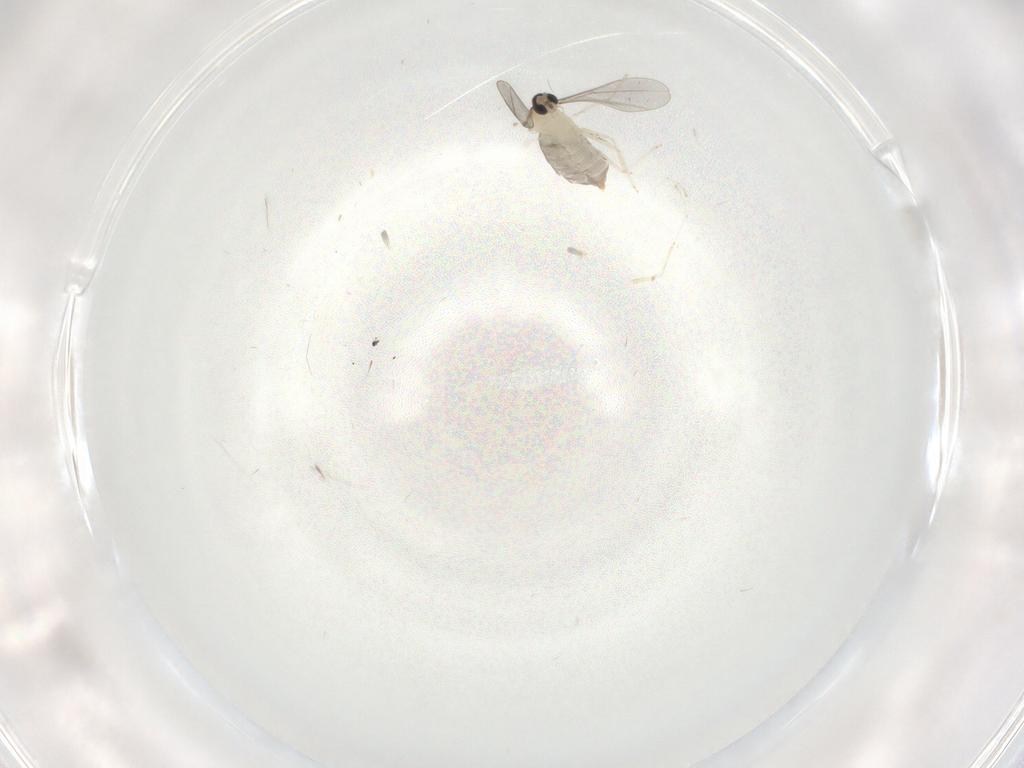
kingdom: Animalia
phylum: Arthropoda
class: Insecta
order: Diptera
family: Cecidomyiidae
